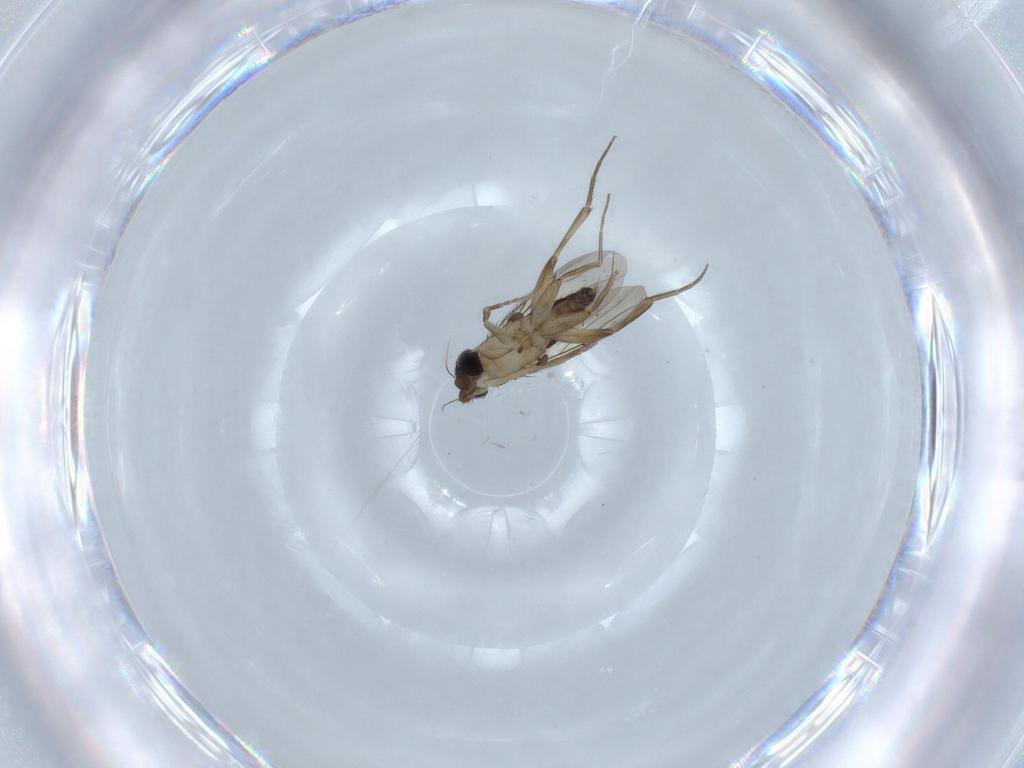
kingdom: Animalia
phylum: Arthropoda
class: Insecta
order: Diptera
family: Phoridae
